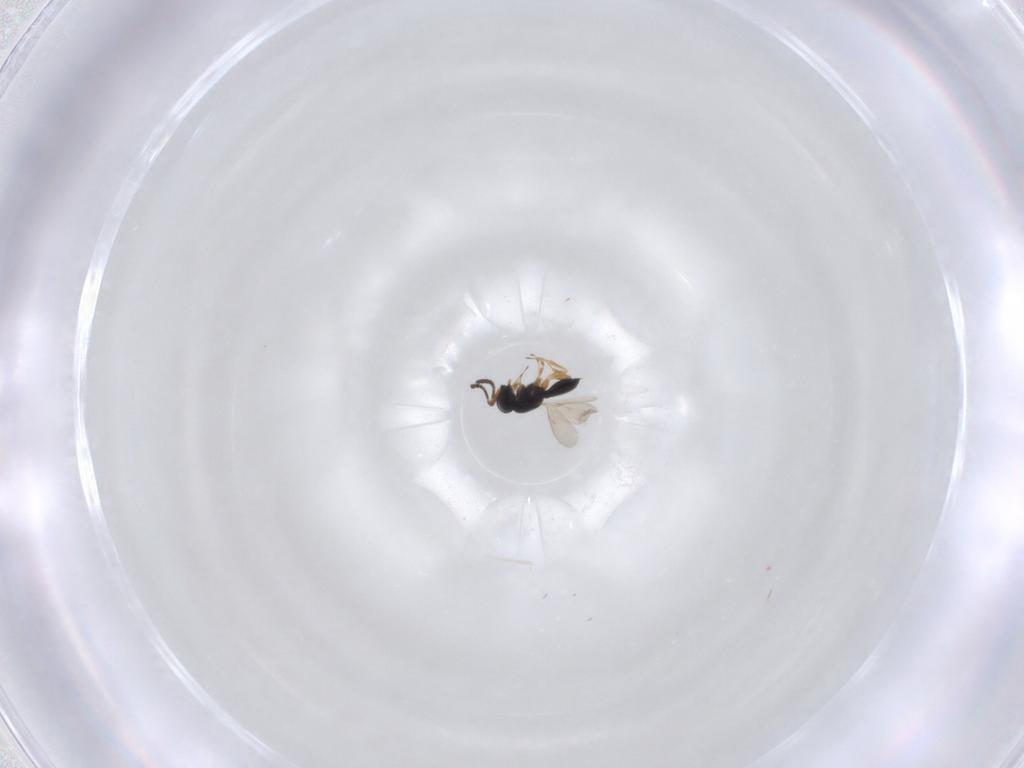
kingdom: Animalia
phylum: Arthropoda
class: Insecta
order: Hymenoptera
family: Scelionidae
